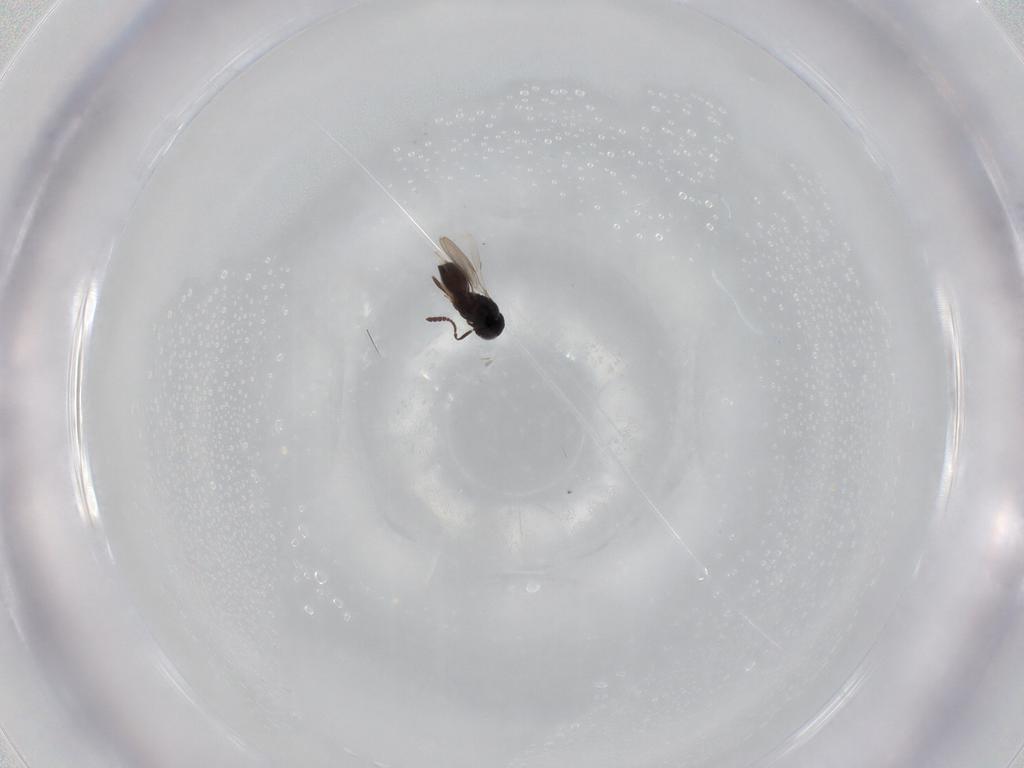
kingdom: Animalia
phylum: Arthropoda
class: Insecta
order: Hymenoptera
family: Scelionidae
